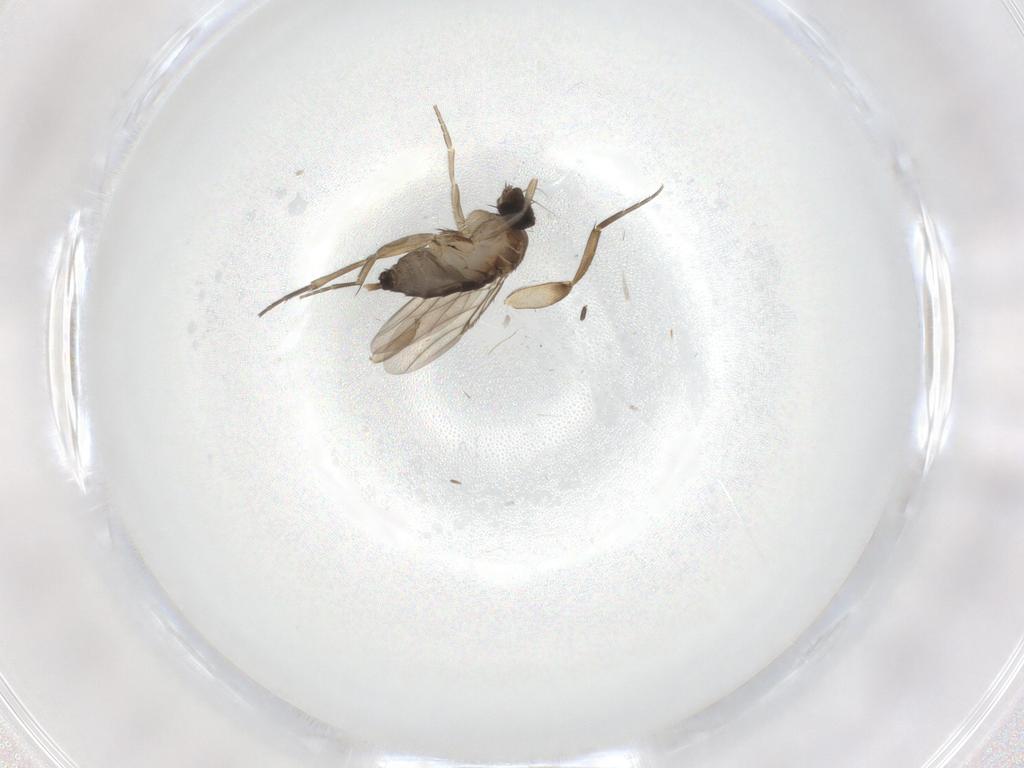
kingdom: Animalia
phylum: Arthropoda
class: Insecta
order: Diptera
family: Phoridae
